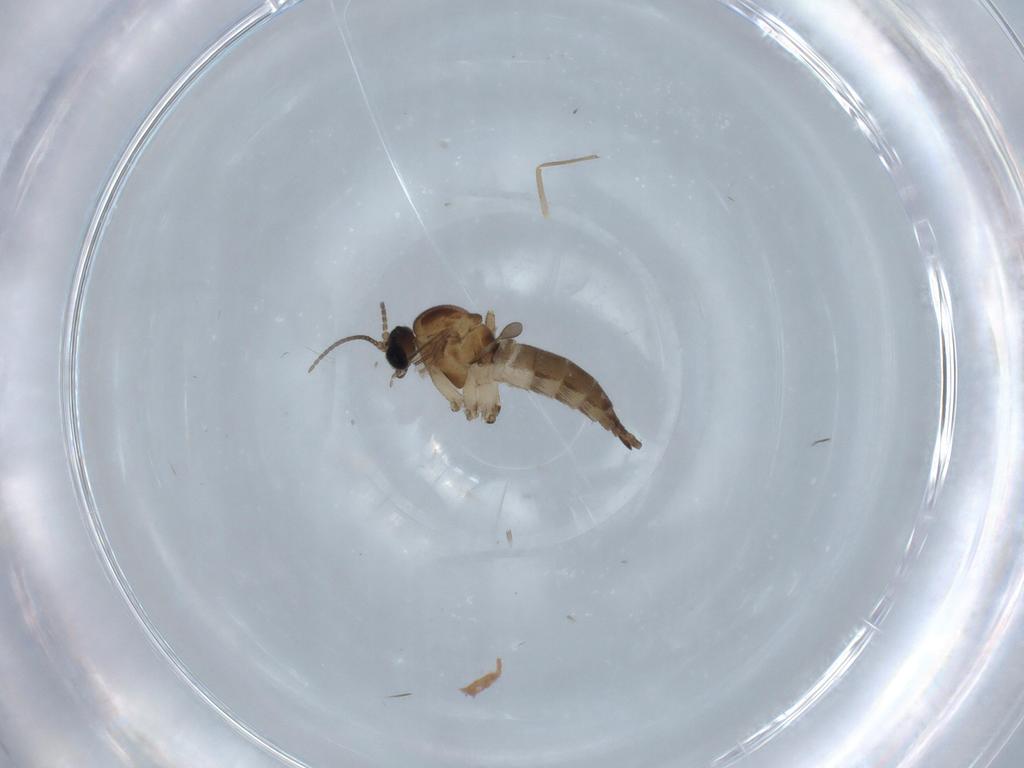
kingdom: Animalia
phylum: Arthropoda
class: Insecta
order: Diptera
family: Sciaridae
